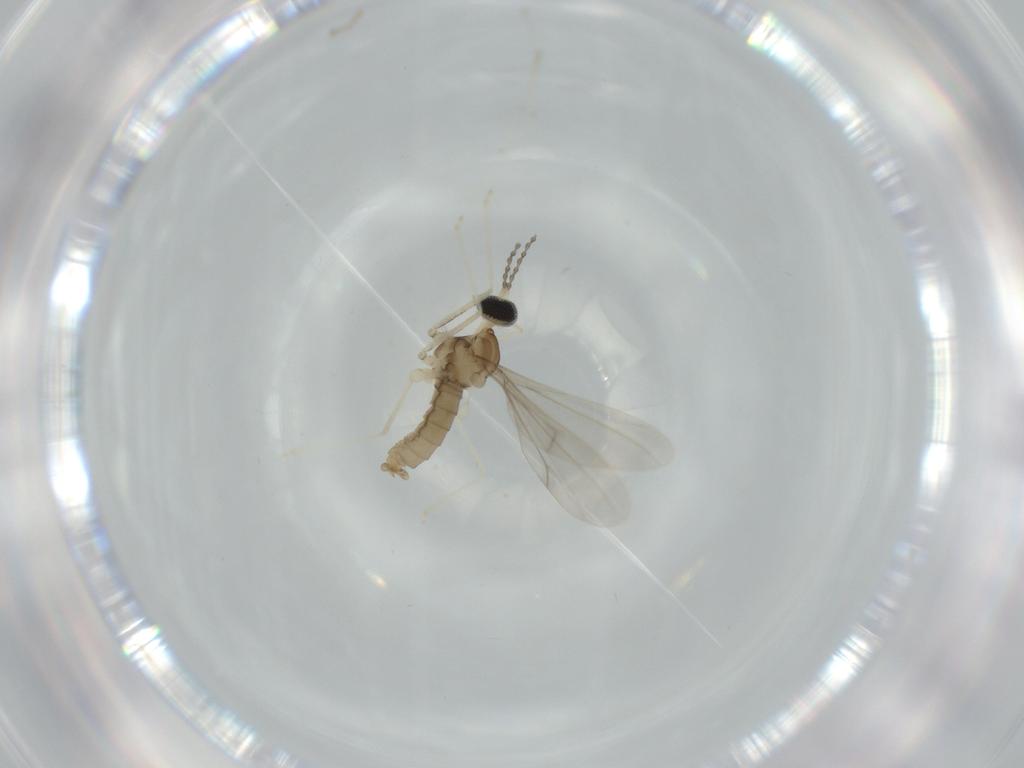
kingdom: Animalia
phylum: Arthropoda
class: Insecta
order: Diptera
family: Cecidomyiidae
